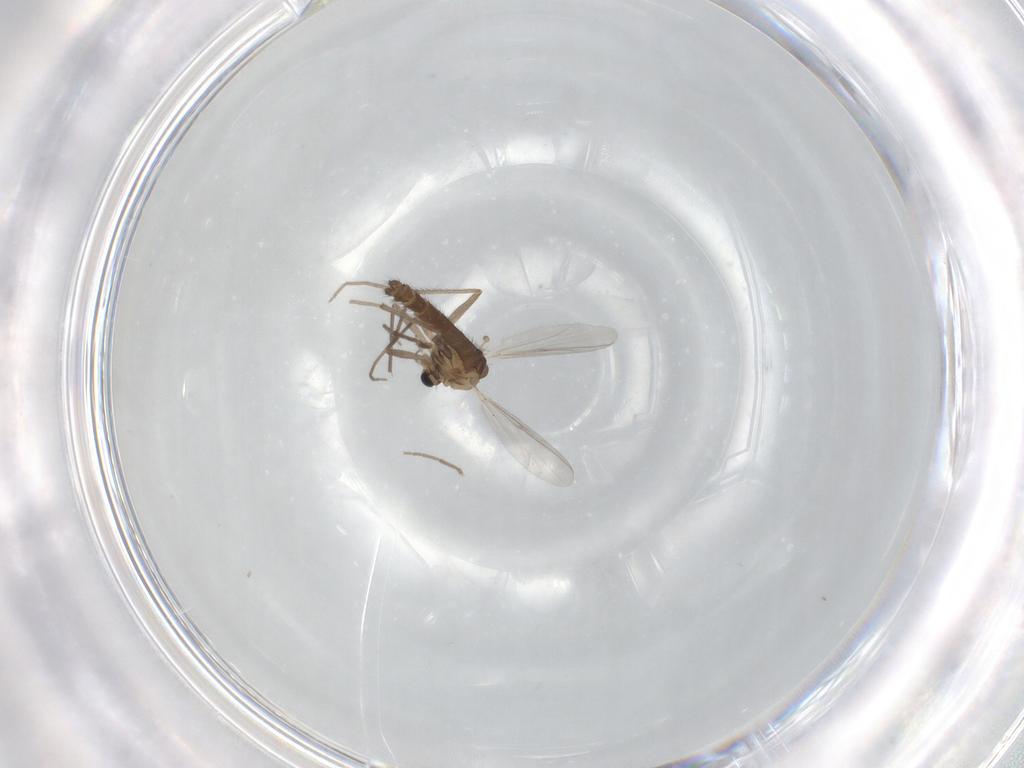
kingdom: Animalia
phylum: Arthropoda
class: Insecta
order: Diptera
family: Chironomidae
